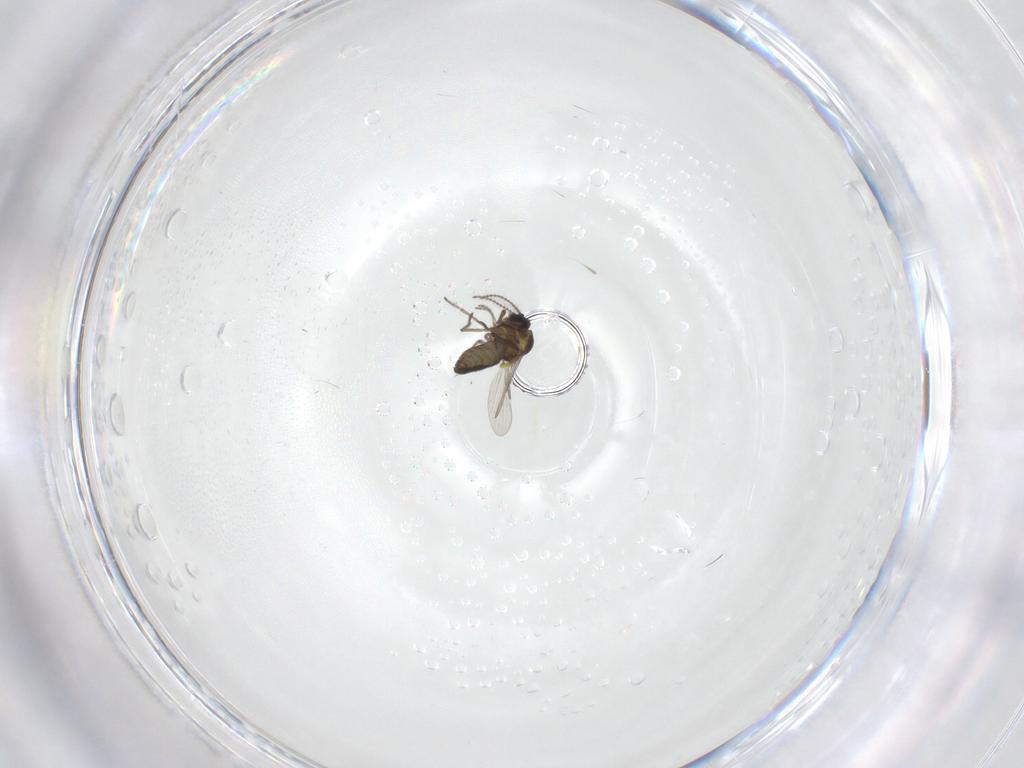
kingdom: Animalia
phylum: Arthropoda
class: Insecta
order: Diptera
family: Ceratopogonidae
